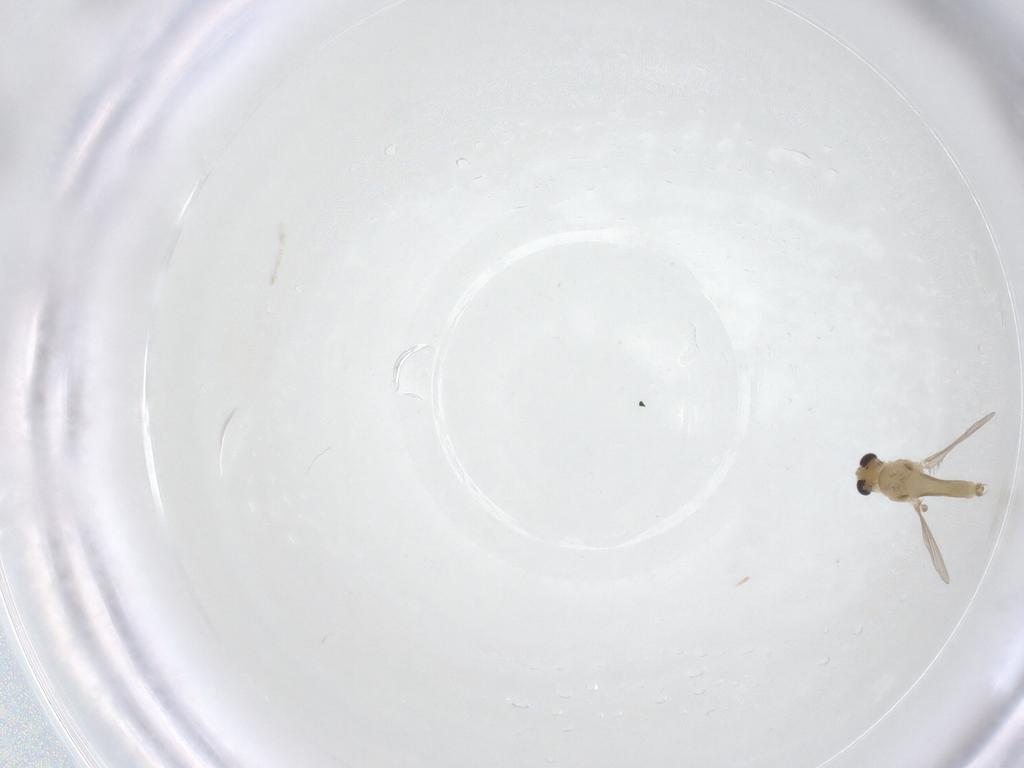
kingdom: Animalia
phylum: Arthropoda
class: Insecta
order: Diptera
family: Chironomidae
